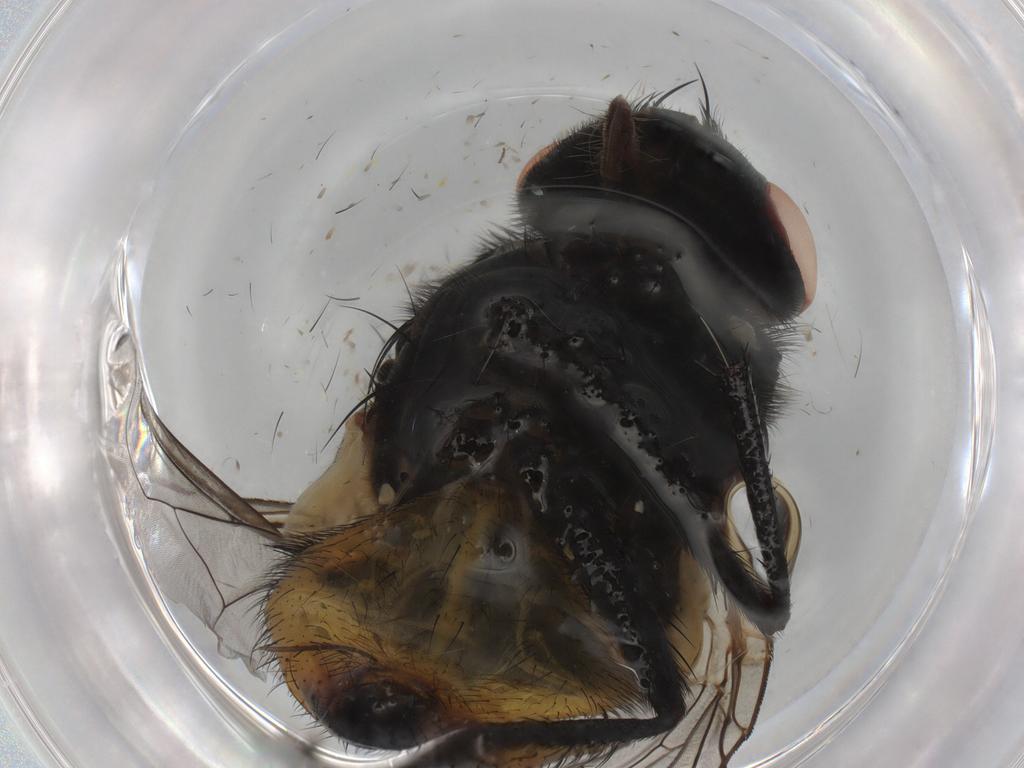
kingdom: Animalia
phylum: Arthropoda
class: Insecta
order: Diptera
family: Muscidae
